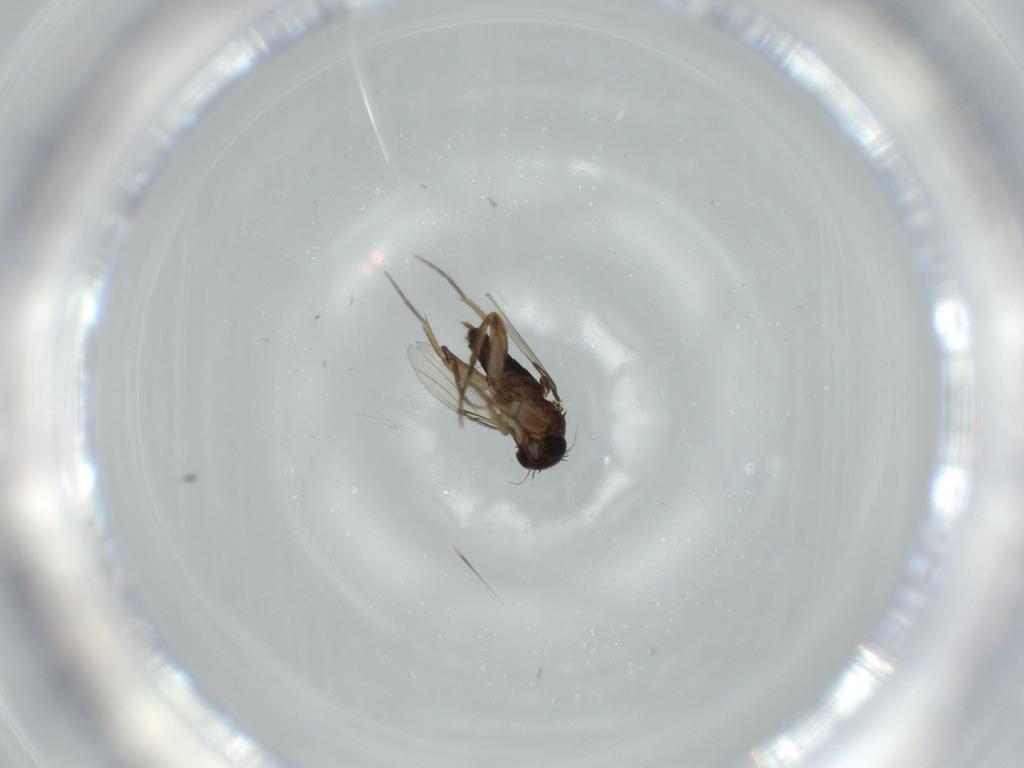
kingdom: Animalia
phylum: Arthropoda
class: Insecta
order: Diptera
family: Phoridae
